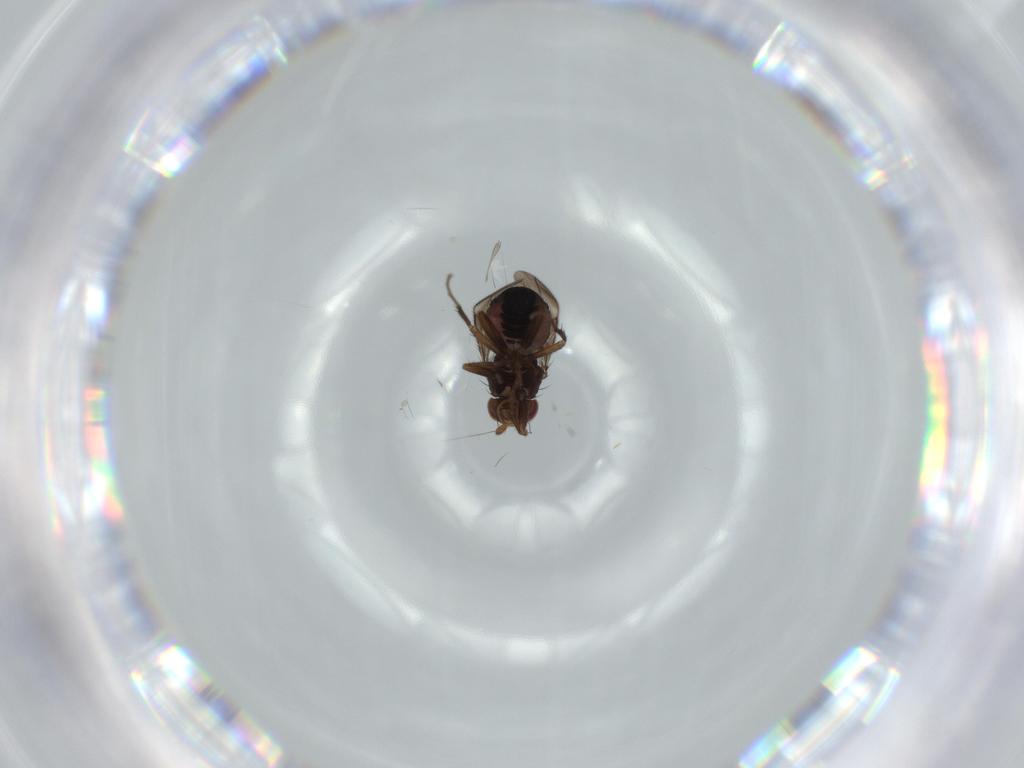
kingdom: Animalia
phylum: Arthropoda
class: Insecta
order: Diptera
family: Sphaeroceridae
